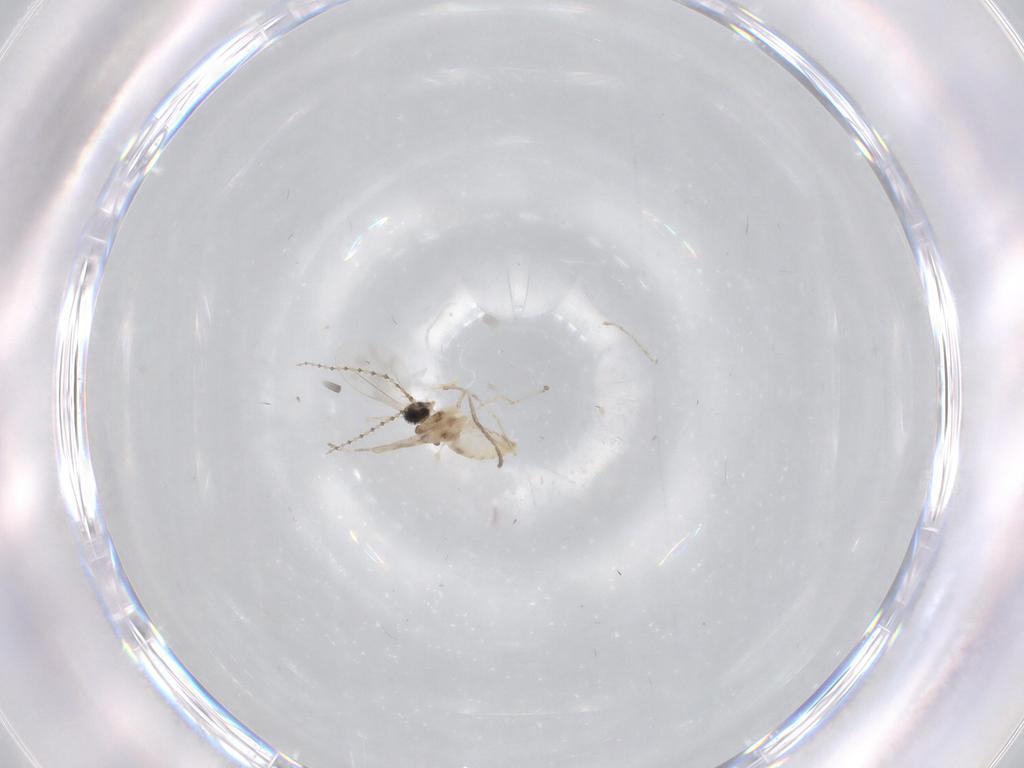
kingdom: Animalia
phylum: Arthropoda
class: Insecta
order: Diptera
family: Cecidomyiidae
